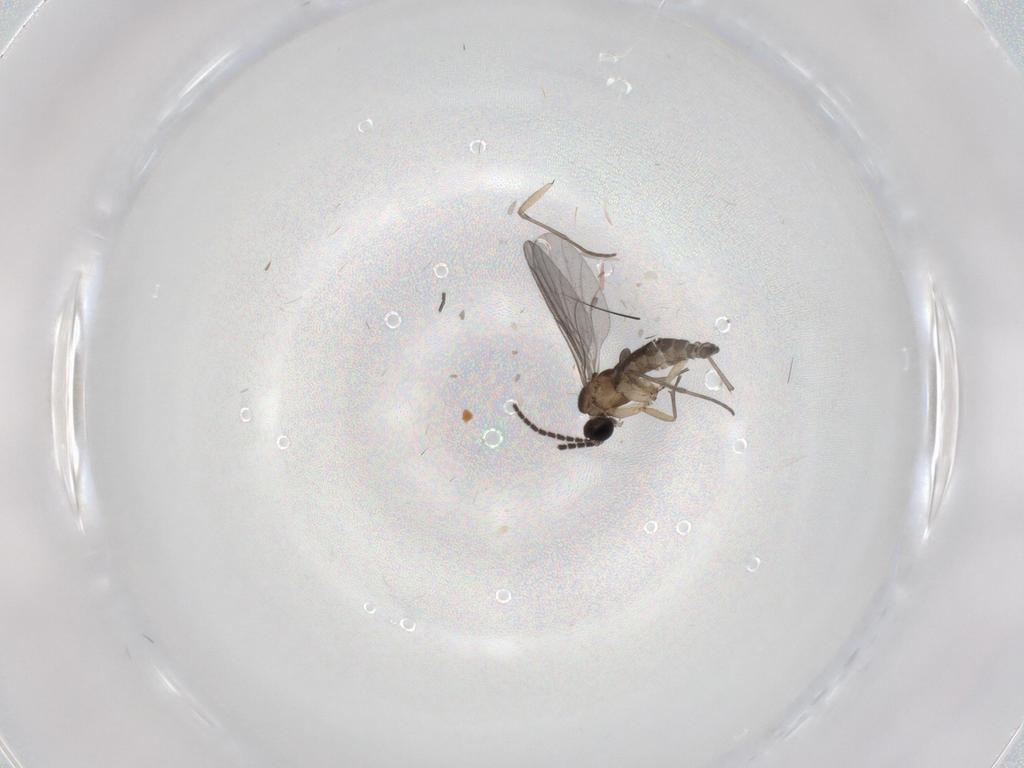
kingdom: Animalia
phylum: Arthropoda
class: Insecta
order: Diptera
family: Sciaridae
